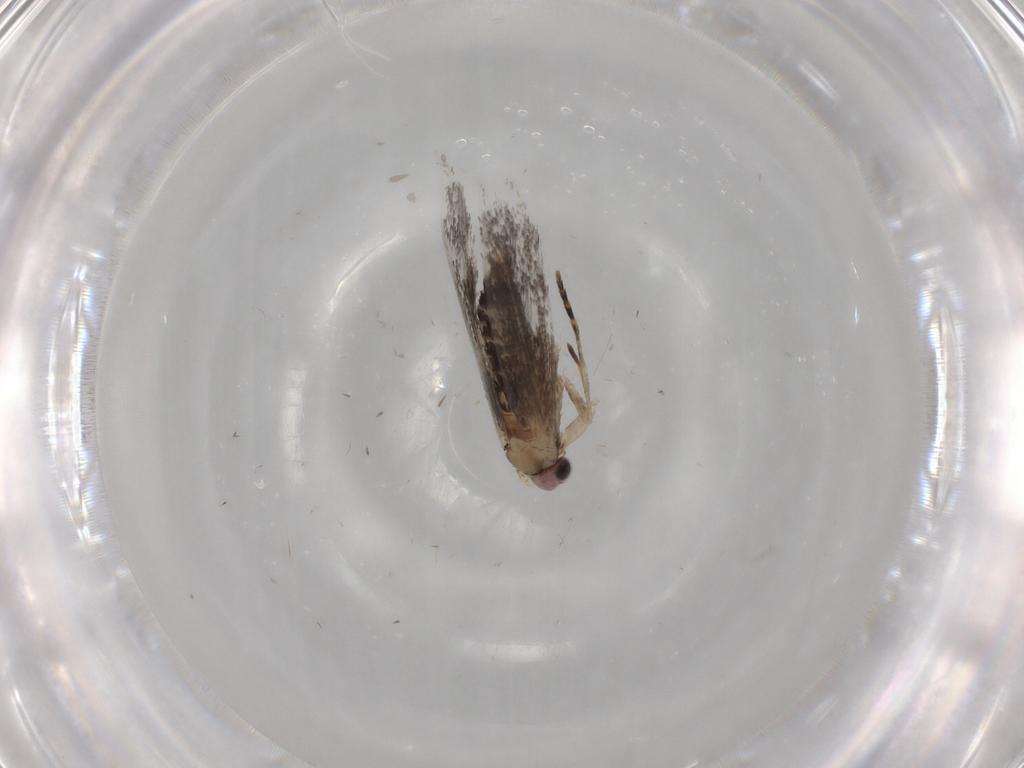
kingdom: Animalia
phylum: Arthropoda
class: Insecta
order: Lepidoptera
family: Tineidae
